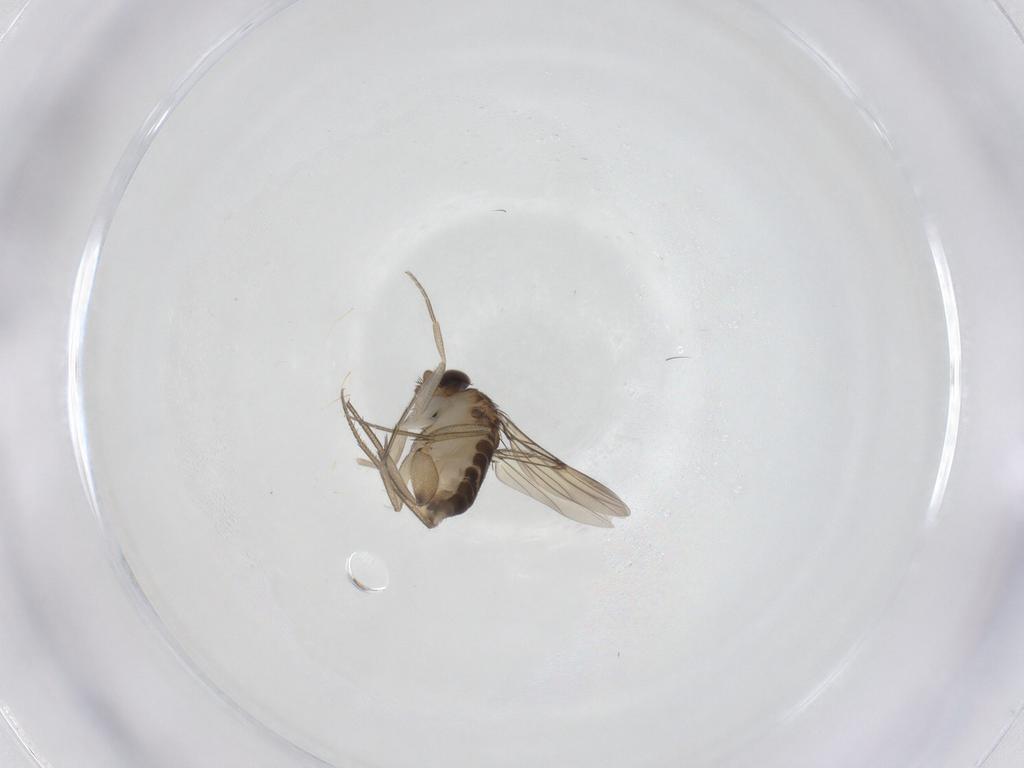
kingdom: Animalia
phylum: Arthropoda
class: Insecta
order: Diptera
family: Phoridae
